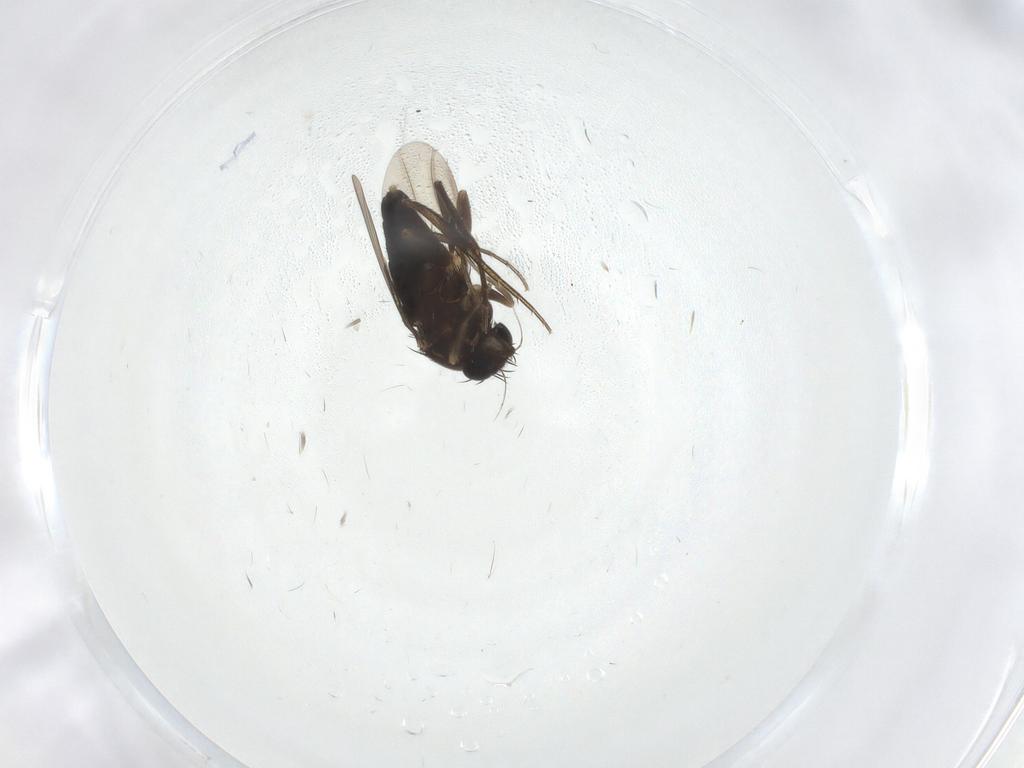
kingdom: Animalia
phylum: Arthropoda
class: Insecta
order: Diptera
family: Phoridae
